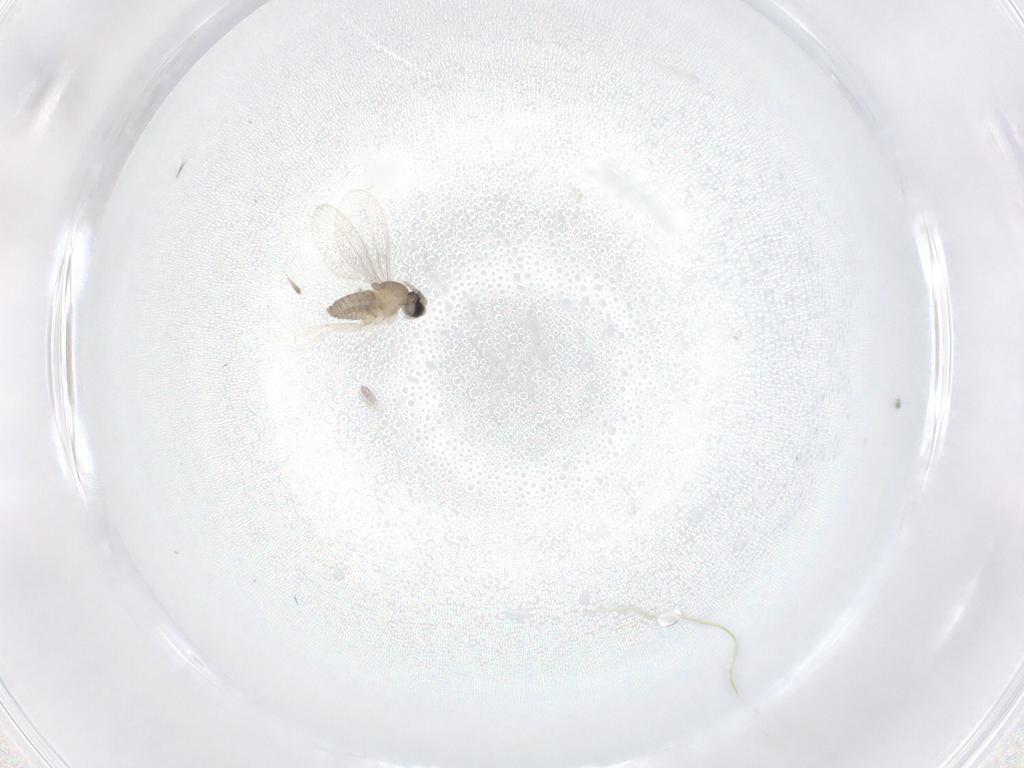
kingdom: Animalia
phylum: Arthropoda
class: Insecta
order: Diptera
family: Cecidomyiidae
